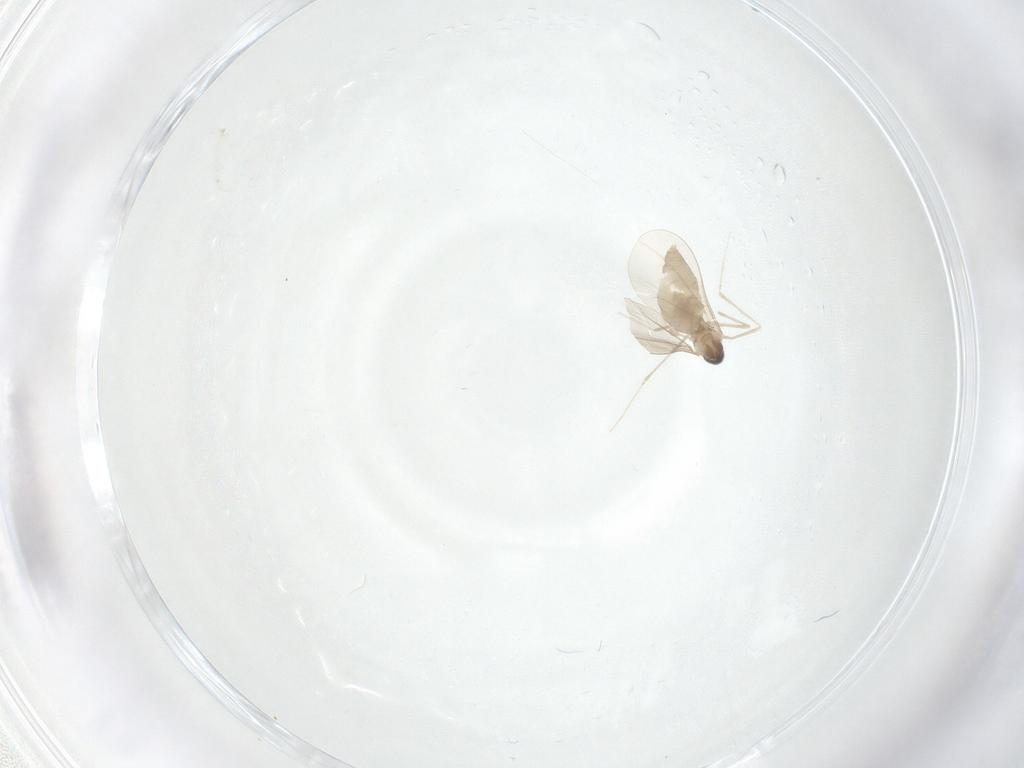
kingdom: Animalia
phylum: Arthropoda
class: Insecta
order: Diptera
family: Cecidomyiidae
